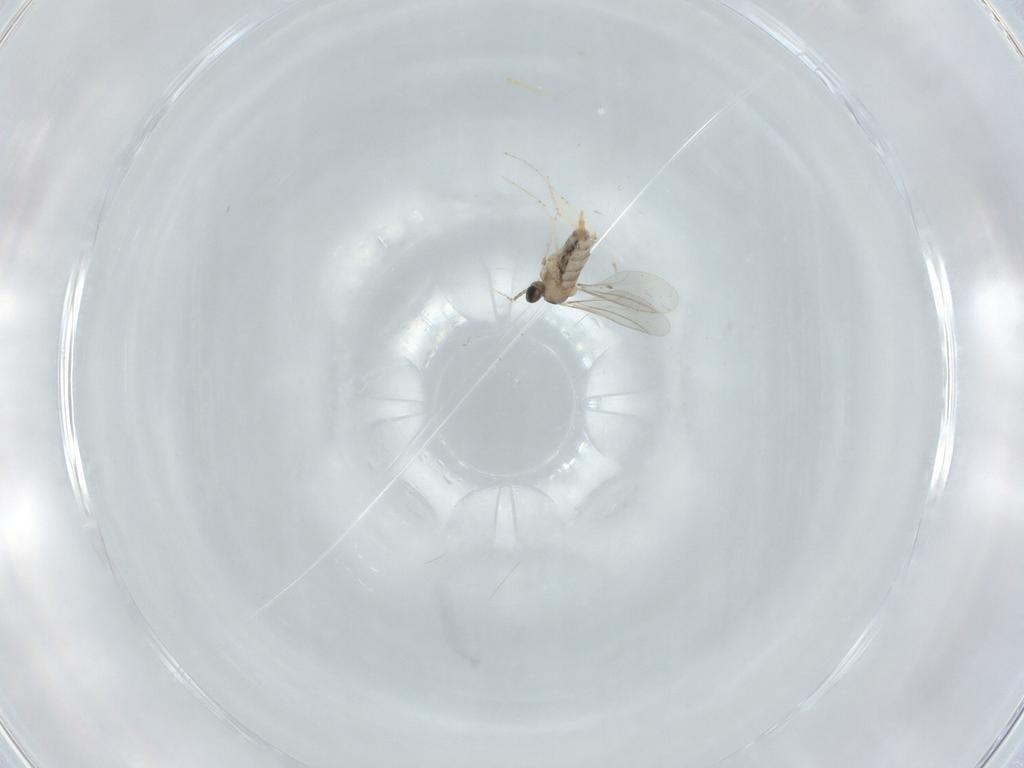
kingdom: Animalia
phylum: Arthropoda
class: Insecta
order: Diptera
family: Cecidomyiidae
